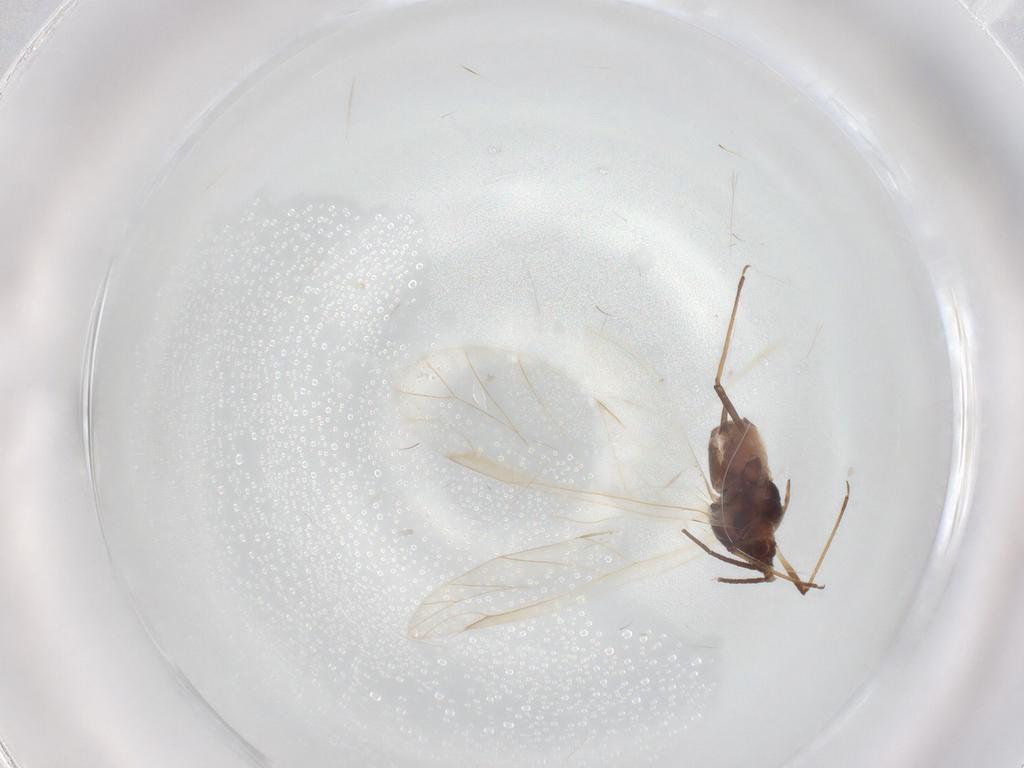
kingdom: Animalia
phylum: Arthropoda
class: Insecta
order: Hemiptera
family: Aphididae
